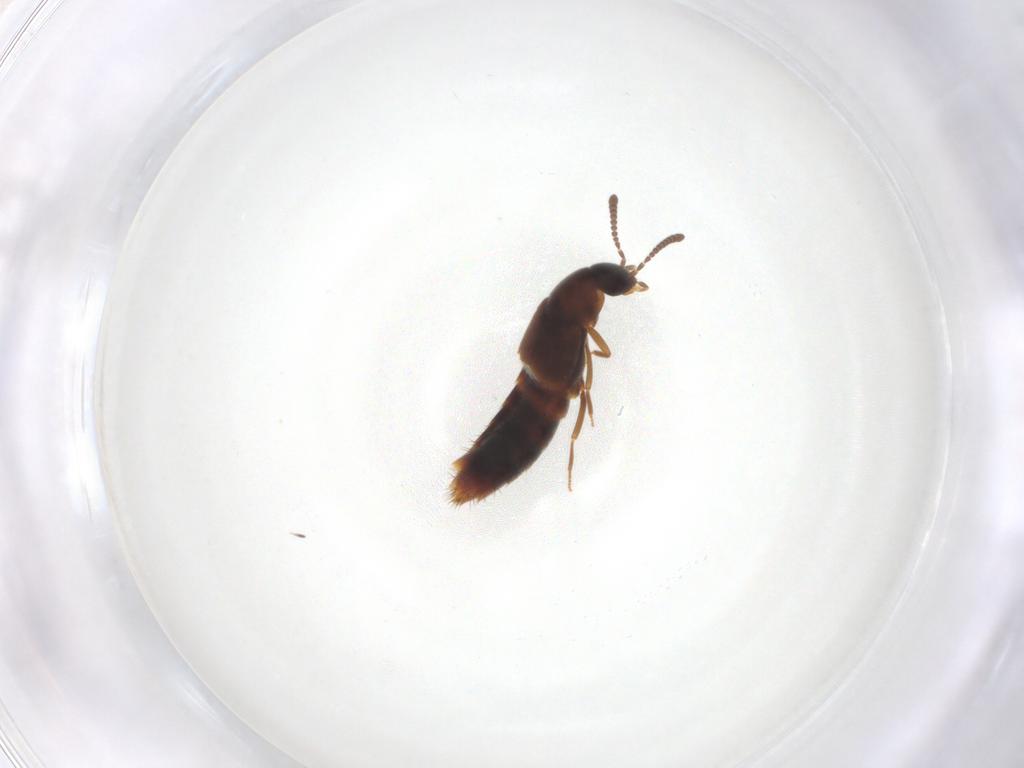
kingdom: Animalia
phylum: Arthropoda
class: Insecta
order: Coleoptera
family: Staphylinidae
